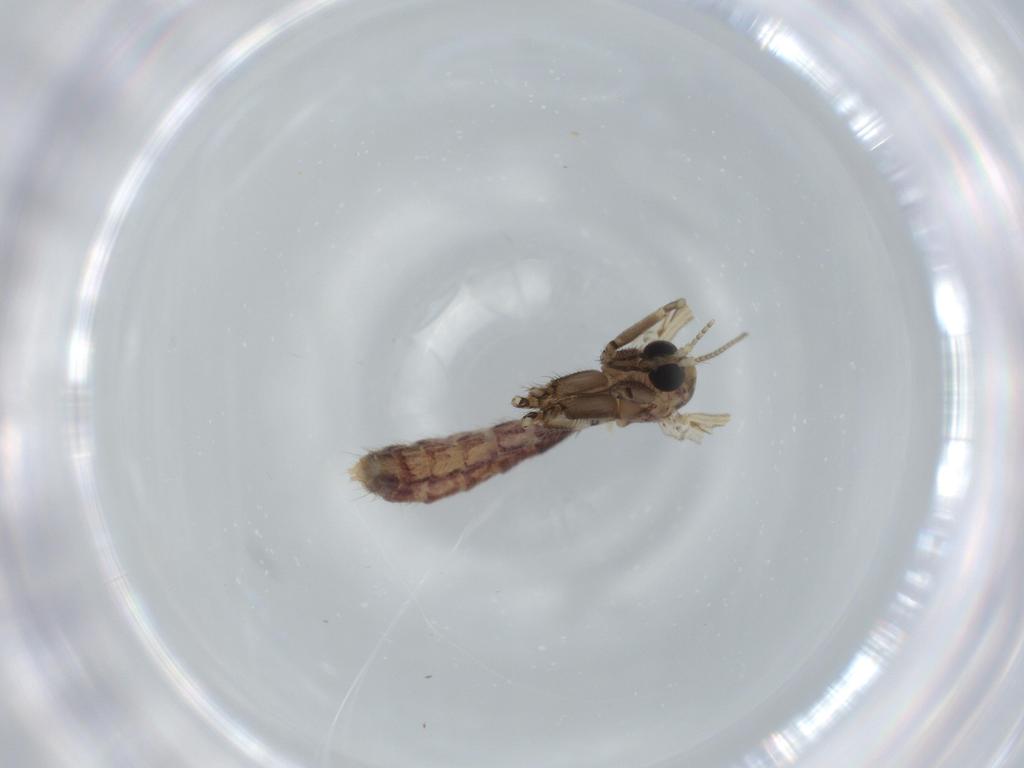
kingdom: Animalia
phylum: Arthropoda
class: Insecta
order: Diptera
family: Mycetophilidae
